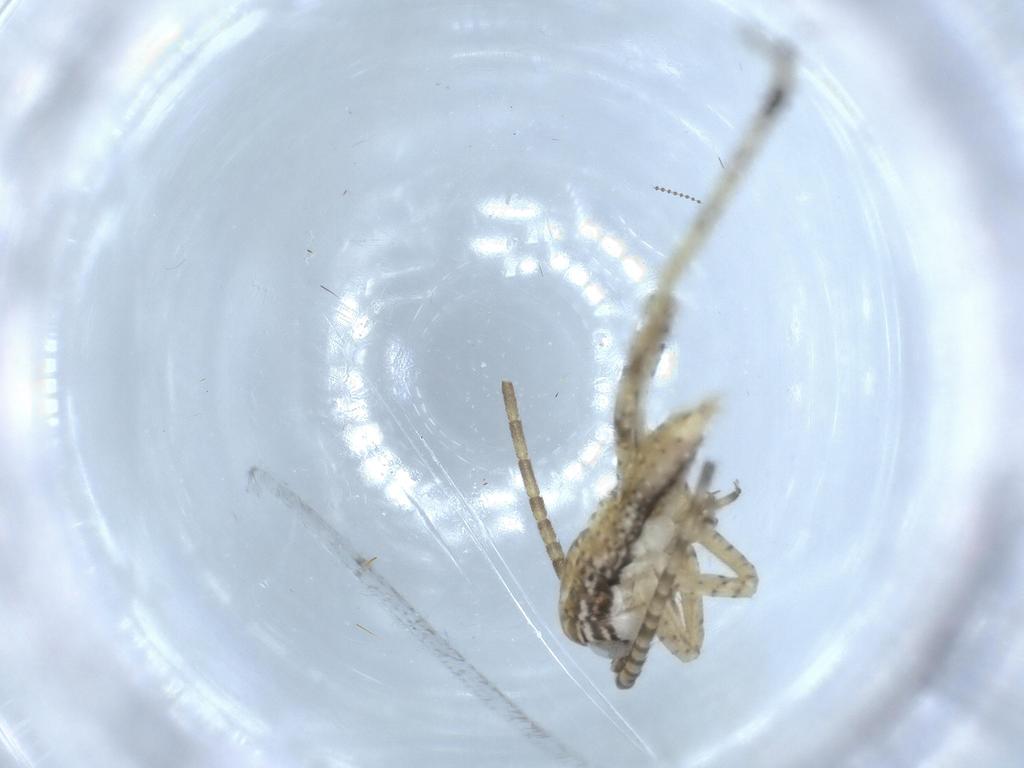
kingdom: Animalia
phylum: Arthropoda
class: Insecta
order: Orthoptera
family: Gryllidae
